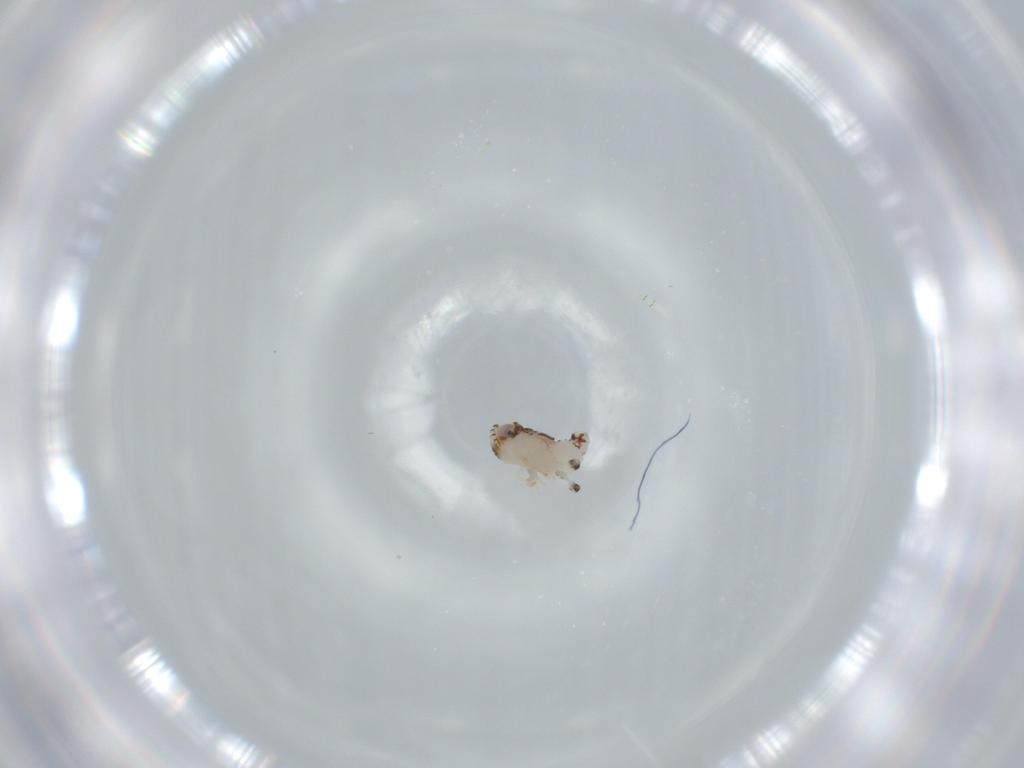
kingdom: Animalia
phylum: Arthropoda
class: Insecta
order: Hemiptera
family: Nogodinidae
